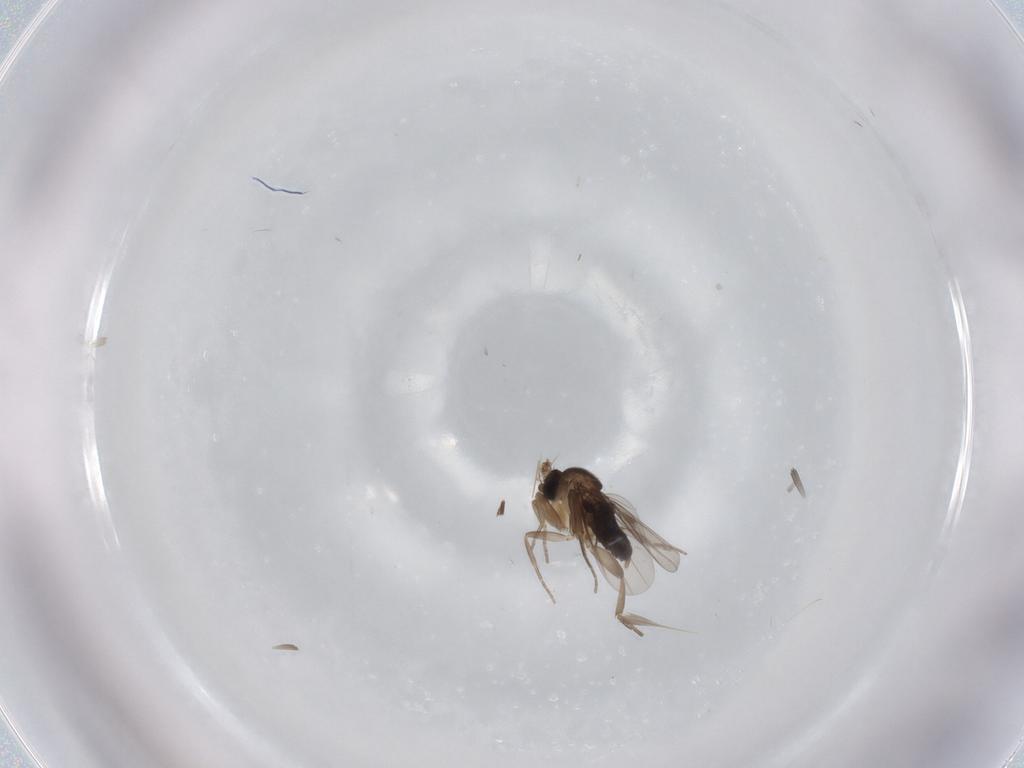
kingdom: Animalia
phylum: Arthropoda
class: Insecta
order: Diptera
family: Phoridae
